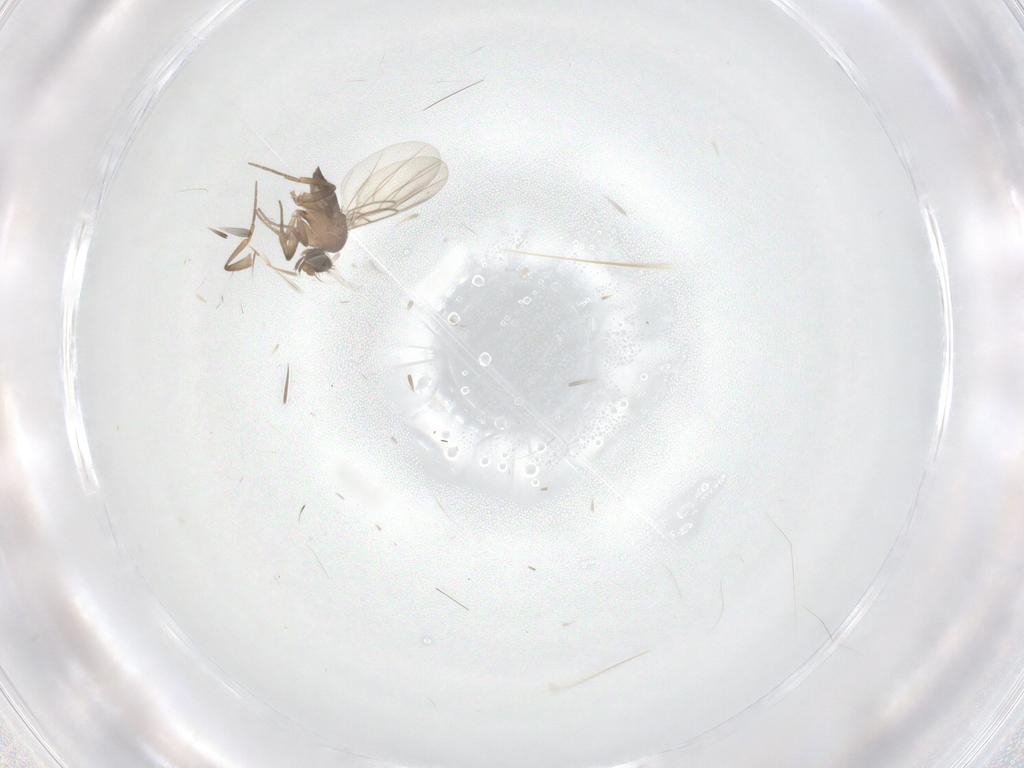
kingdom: Animalia
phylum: Arthropoda
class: Insecta
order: Diptera
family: Phoridae
